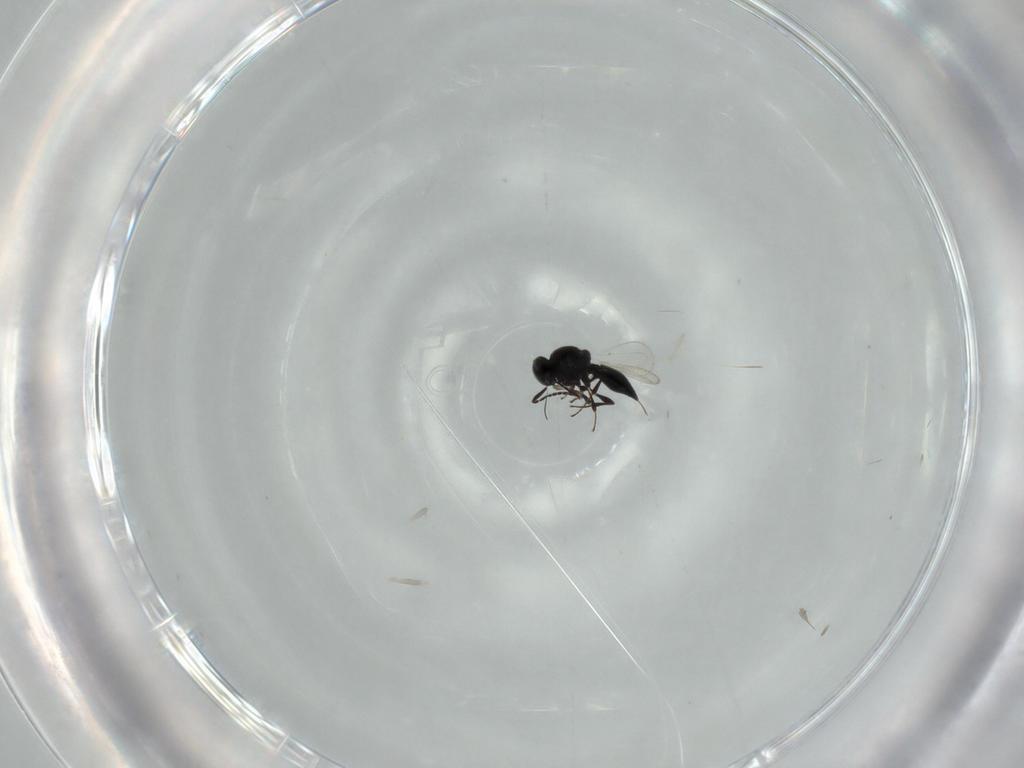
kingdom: Animalia
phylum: Arthropoda
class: Insecta
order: Hymenoptera
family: Platygastridae
